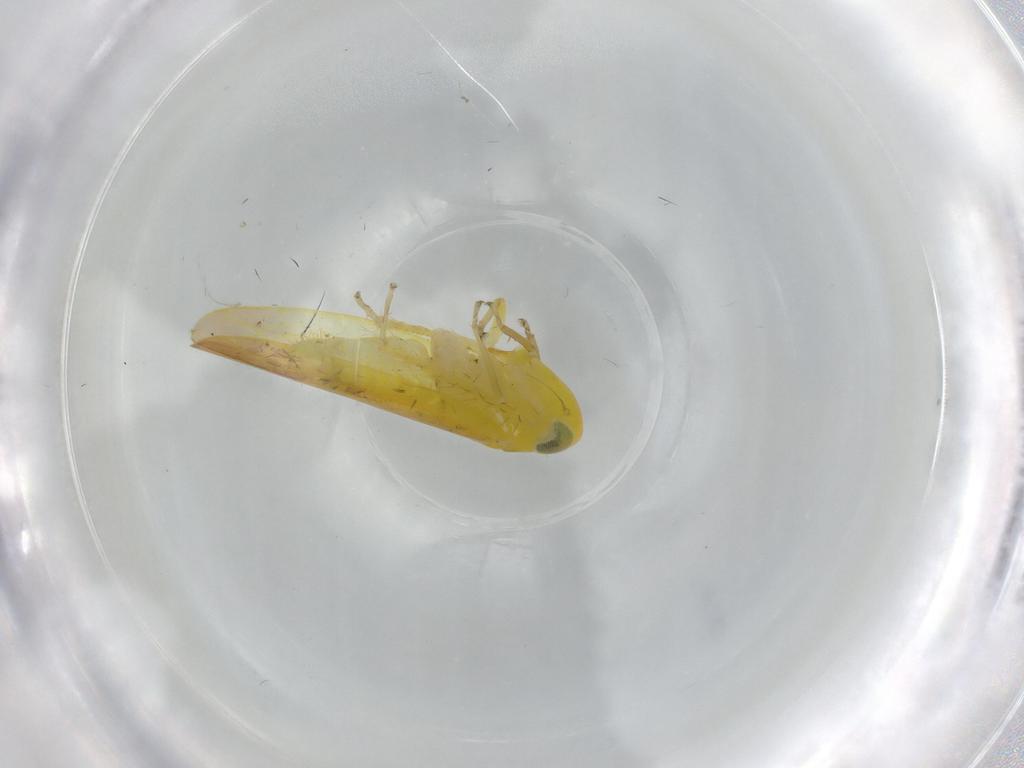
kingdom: Animalia
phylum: Arthropoda
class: Insecta
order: Hemiptera
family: Cicadellidae
